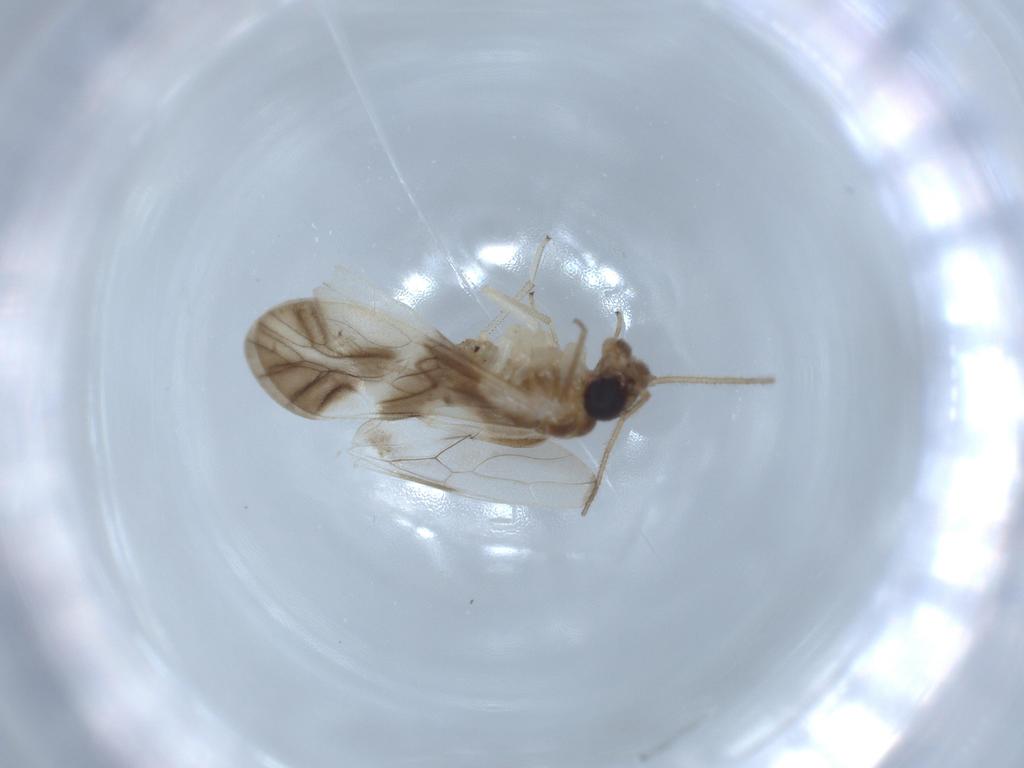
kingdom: Animalia
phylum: Arthropoda
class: Insecta
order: Psocodea
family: Caeciliusidae
